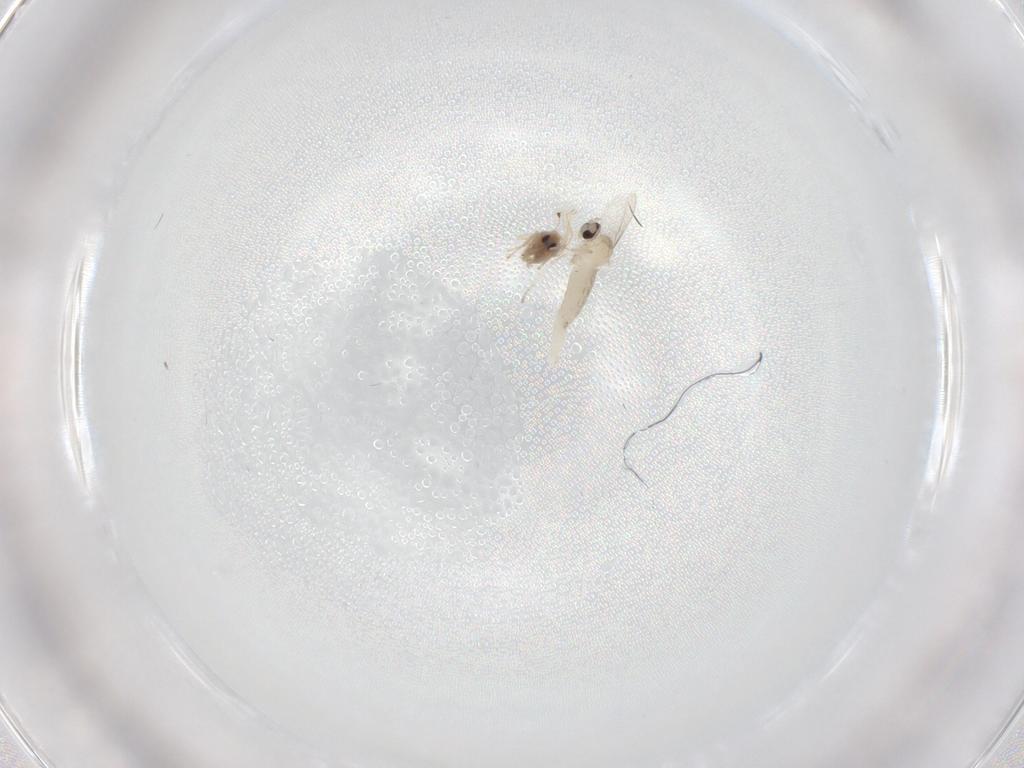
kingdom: Animalia
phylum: Arthropoda
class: Insecta
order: Diptera
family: Cecidomyiidae
